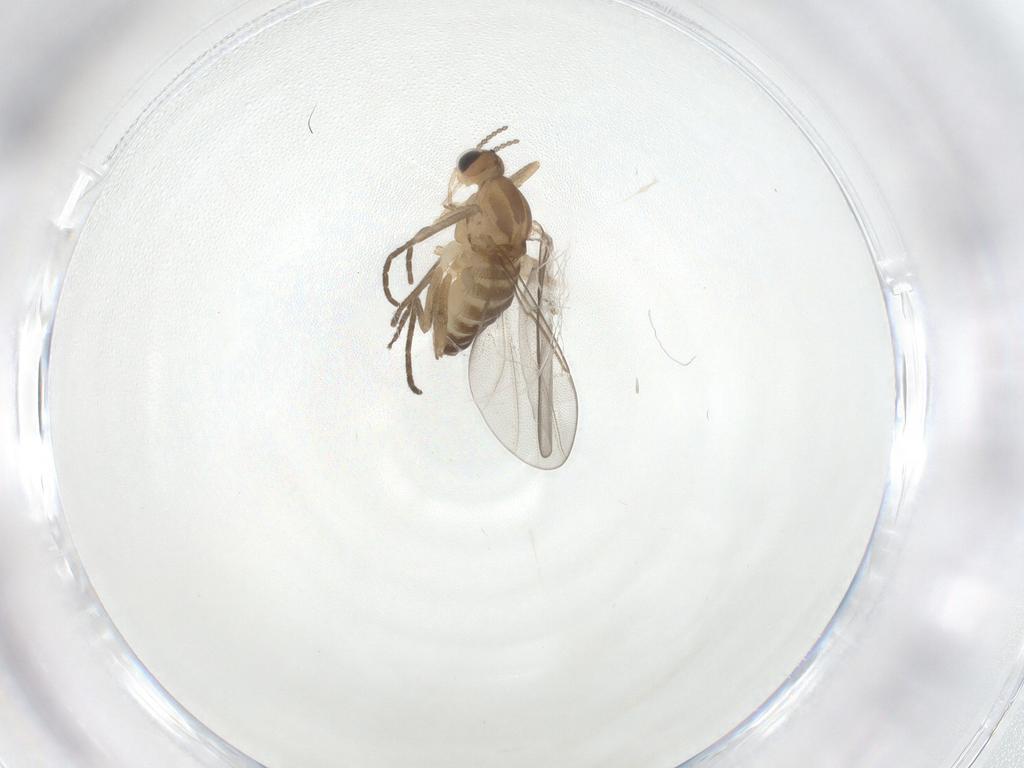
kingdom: Animalia
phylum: Arthropoda
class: Insecta
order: Diptera
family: Cecidomyiidae
